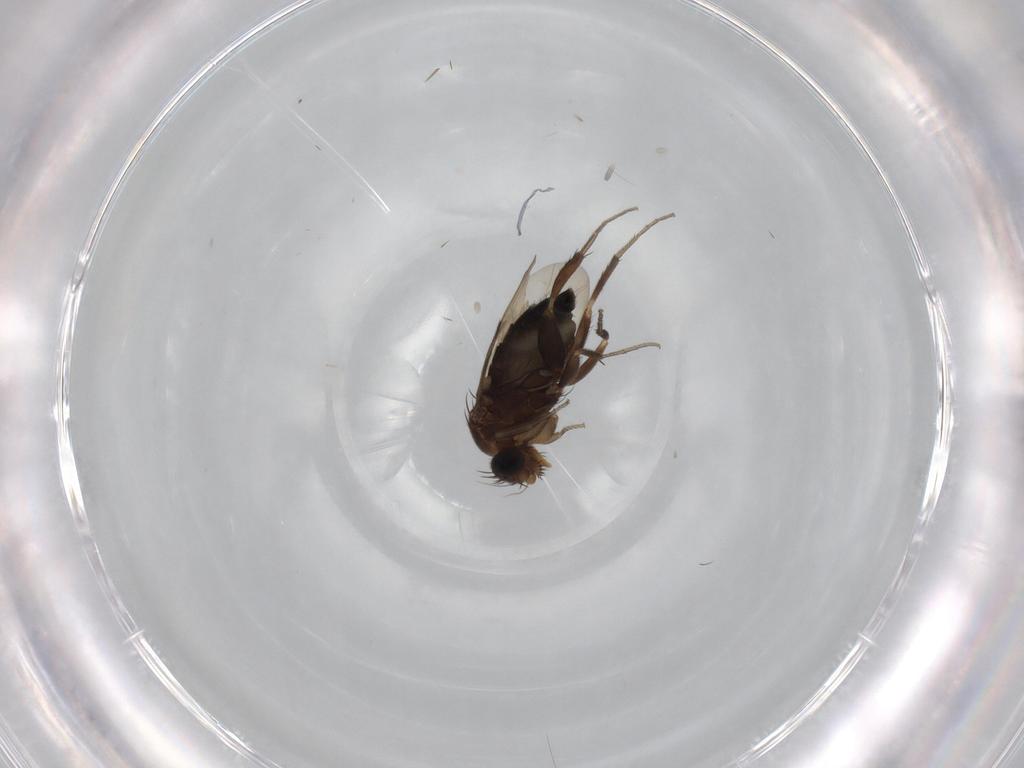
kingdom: Animalia
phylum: Arthropoda
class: Insecta
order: Diptera
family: Phoridae
